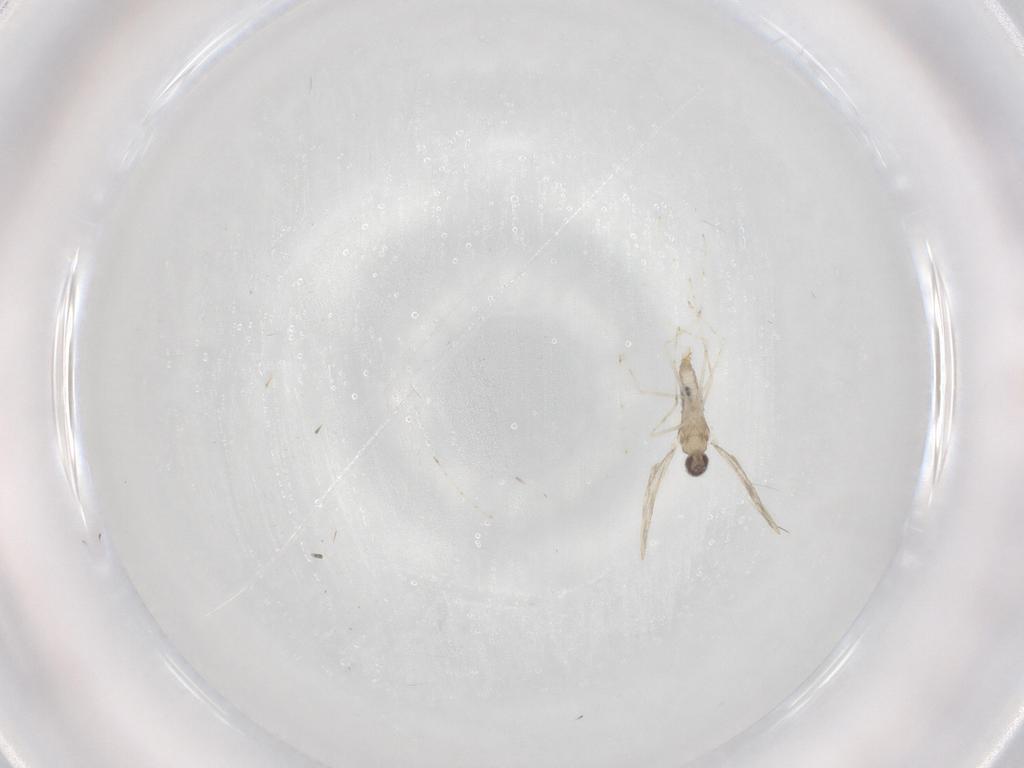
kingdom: Animalia
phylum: Arthropoda
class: Insecta
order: Diptera
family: Cecidomyiidae
